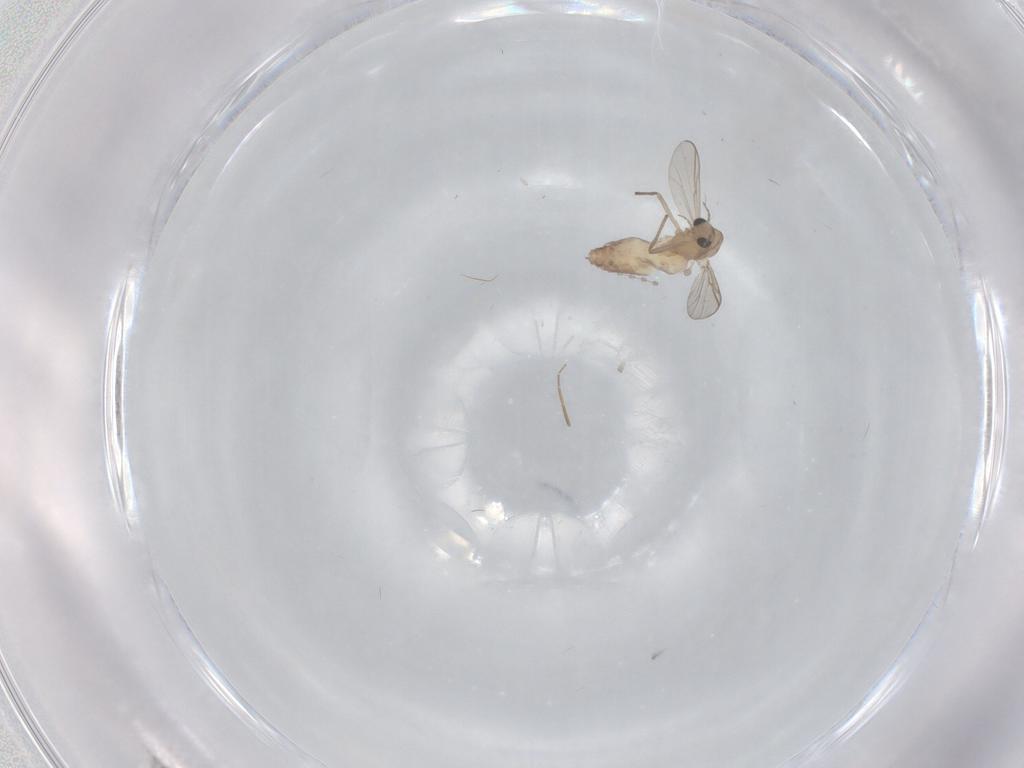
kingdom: Animalia
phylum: Arthropoda
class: Insecta
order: Diptera
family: Chironomidae
